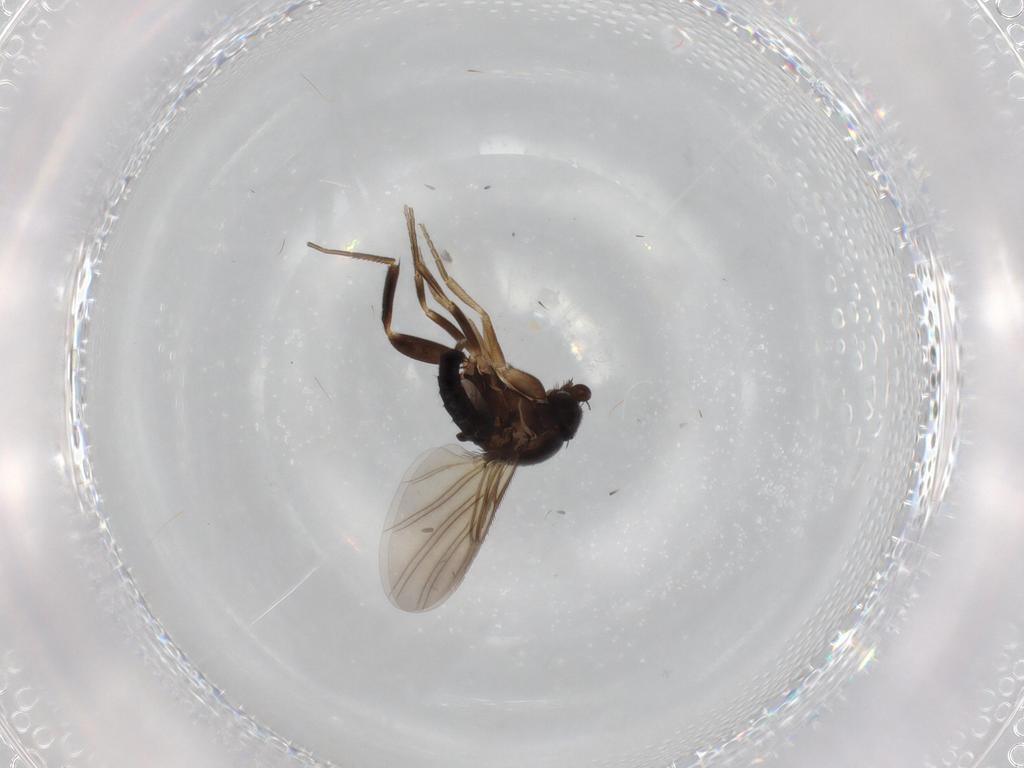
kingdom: Animalia
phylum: Arthropoda
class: Insecta
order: Diptera
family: Limoniidae
